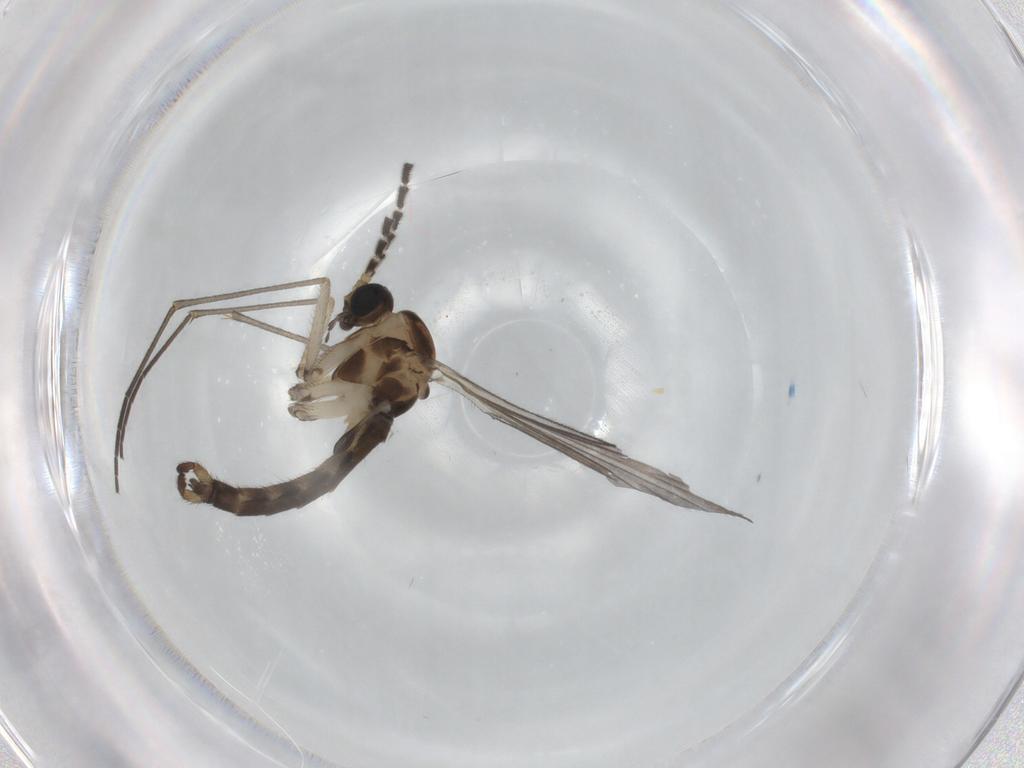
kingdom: Animalia
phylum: Arthropoda
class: Insecta
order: Diptera
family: Sciaridae
